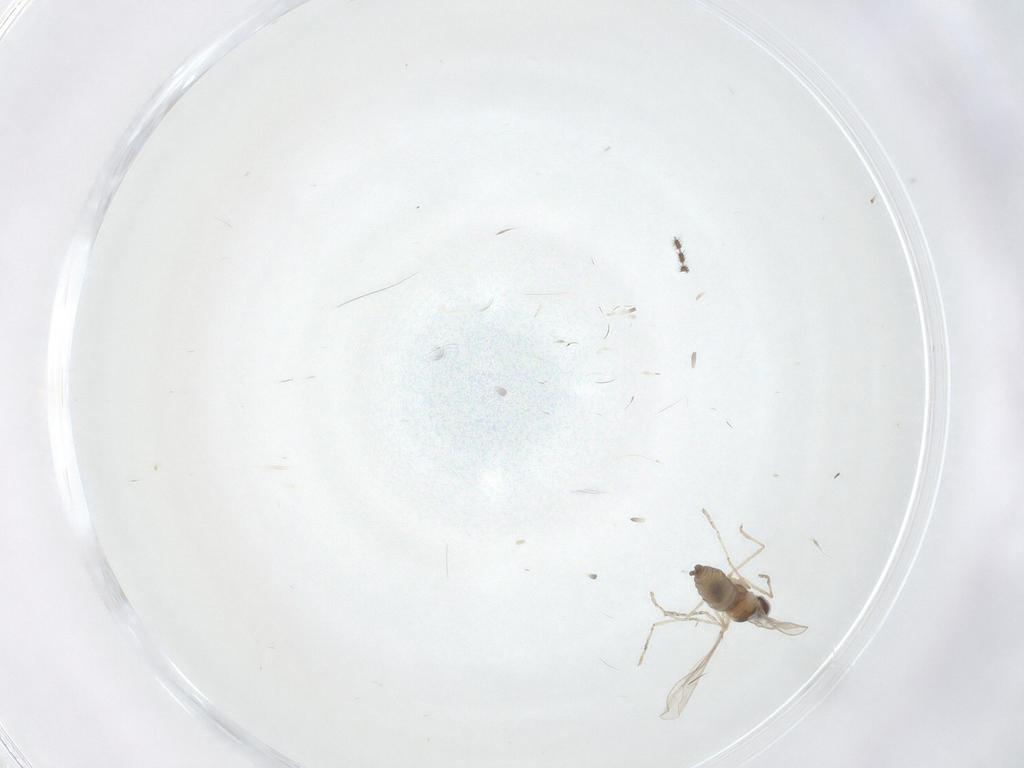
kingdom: Animalia
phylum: Arthropoda
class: Insecta
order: Diptera
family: Cecidomyiidae
